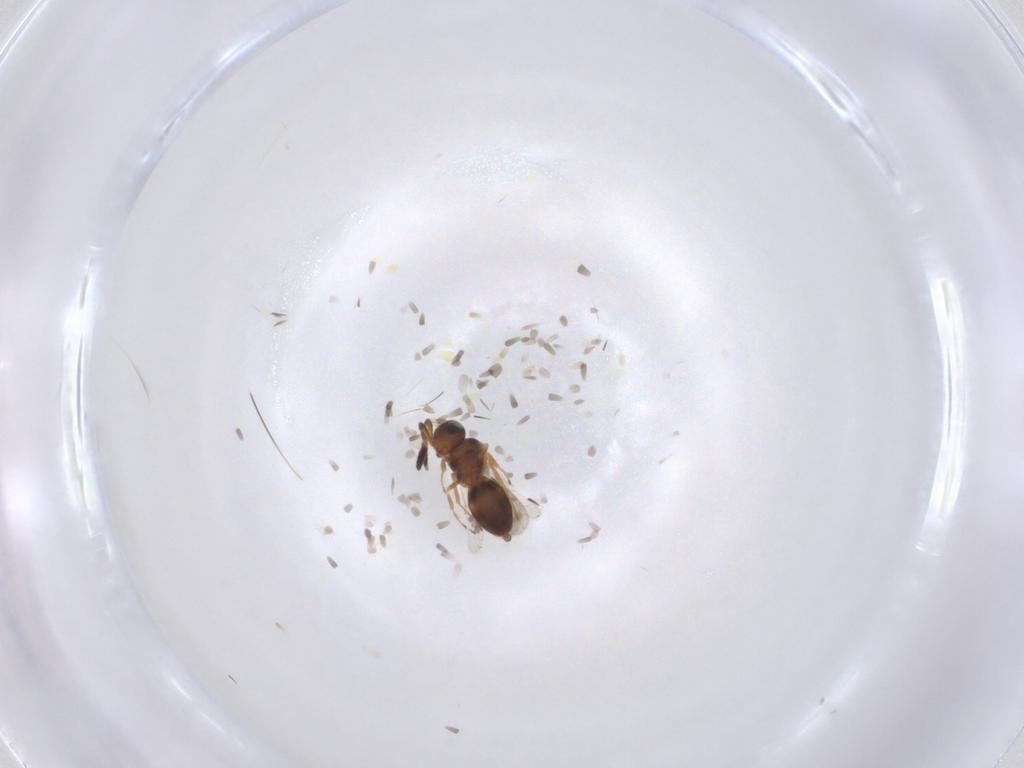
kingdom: Animalia
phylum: Arthropoda
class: Insecta
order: Hymenoptera
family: Scelionidae
